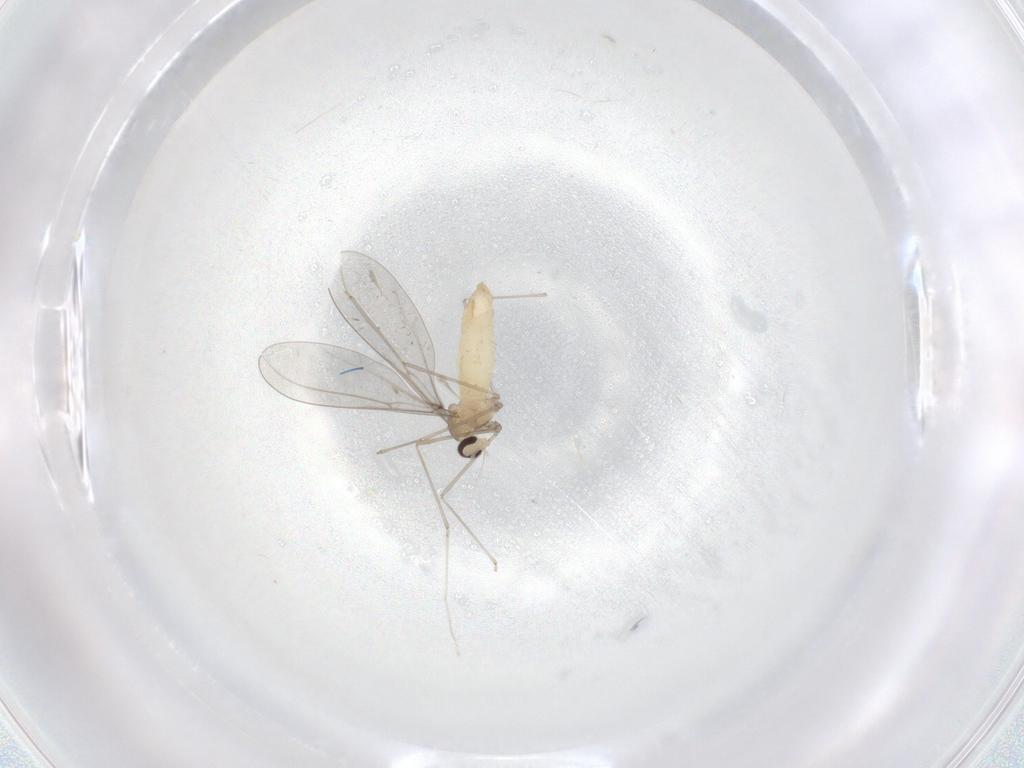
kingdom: Animalia
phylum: Arthropoda
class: Insecta
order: Diptera
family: Cecidomyiidae
